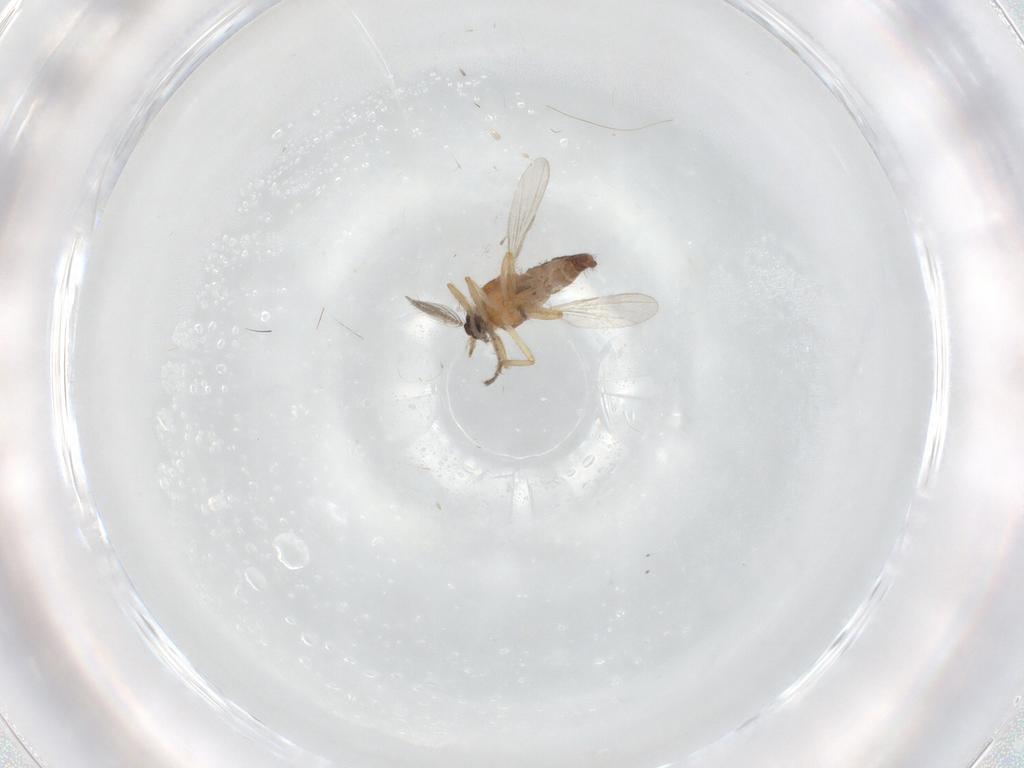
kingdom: Animalia
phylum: Arthropoda
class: Insecta
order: Diptera
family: Ceratopogonidae
